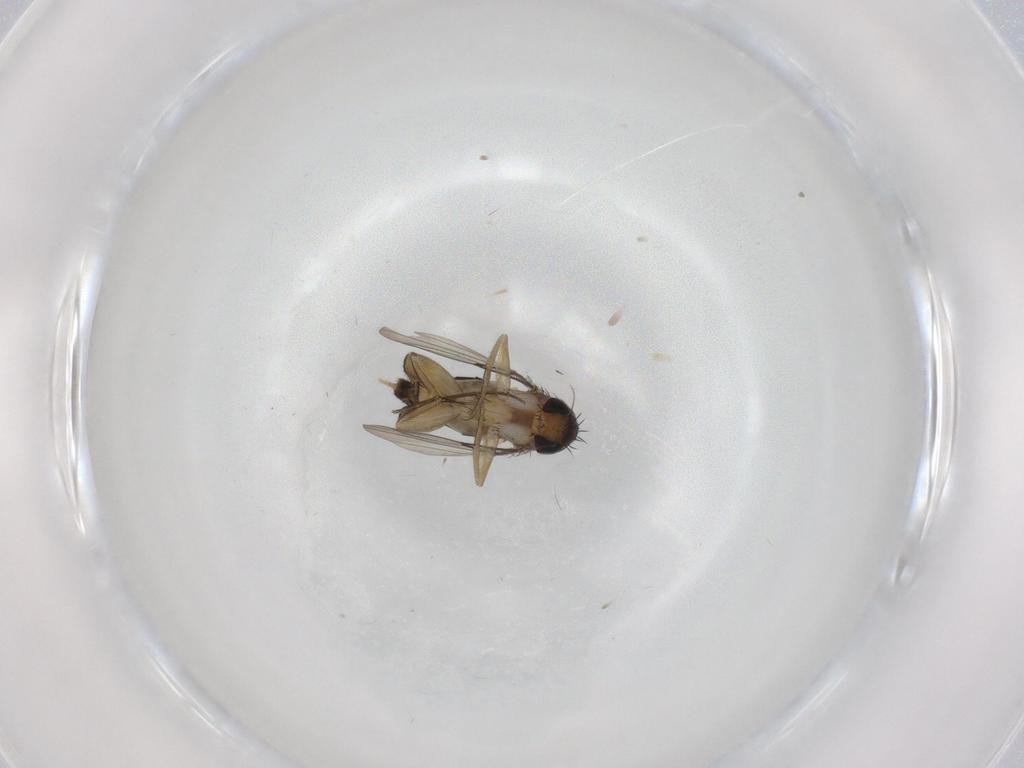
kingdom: Animalia
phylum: Arthropoda
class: Insecta
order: Diptera
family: Phoridae
